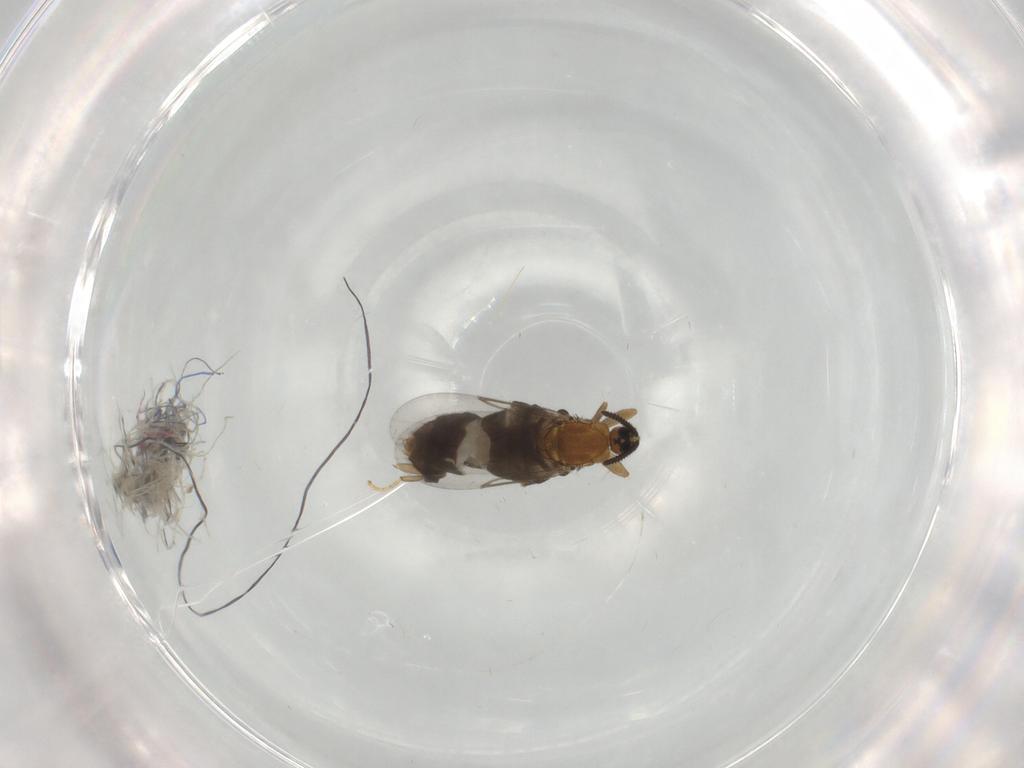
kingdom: Animalia
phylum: Arthropoda
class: Insecta
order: Diptera
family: Scatopsidae
